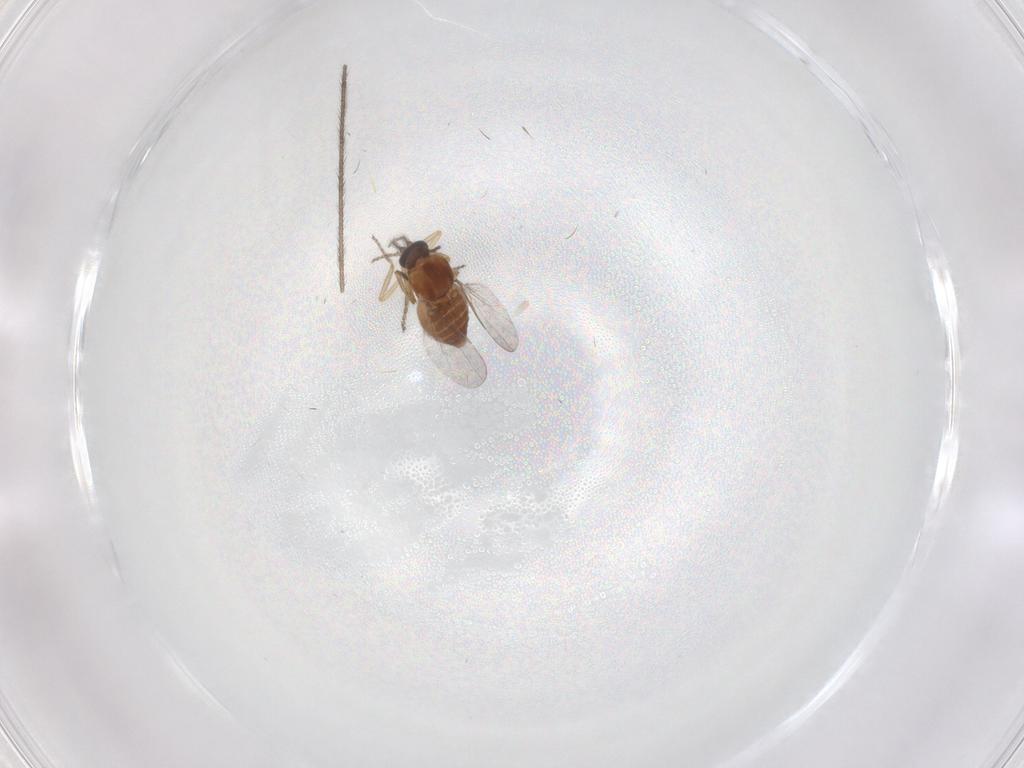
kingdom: Animalia
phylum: Arthropoda
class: Insecta
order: Diptera
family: Ceratopogonidae
